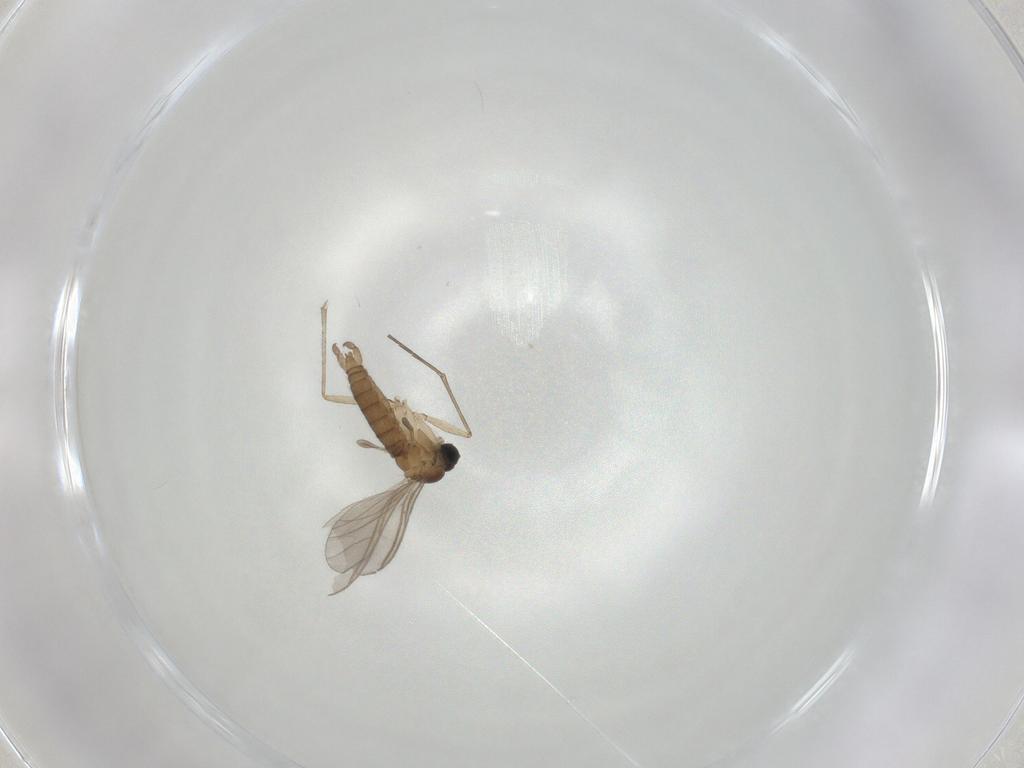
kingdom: Animalia
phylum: Arthropoda
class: Insecta
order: Diptera
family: Sciaridae
